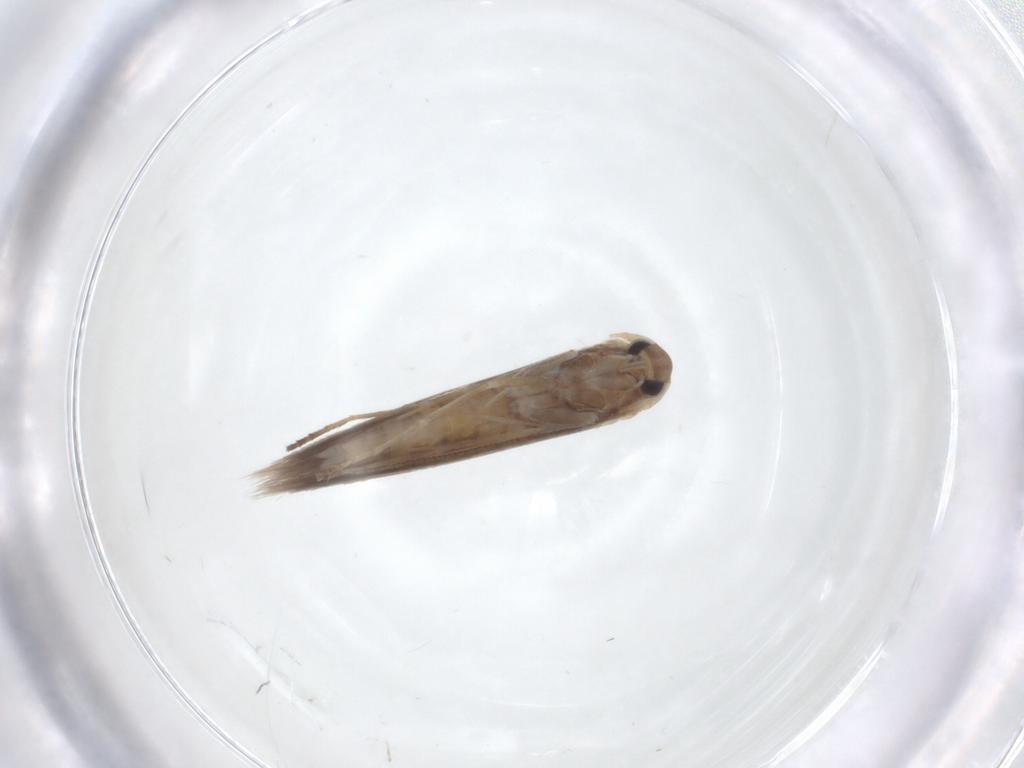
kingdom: Animalia
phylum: Arthropoda
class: Insecta
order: Lepidoptera
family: Lyonetiidae
